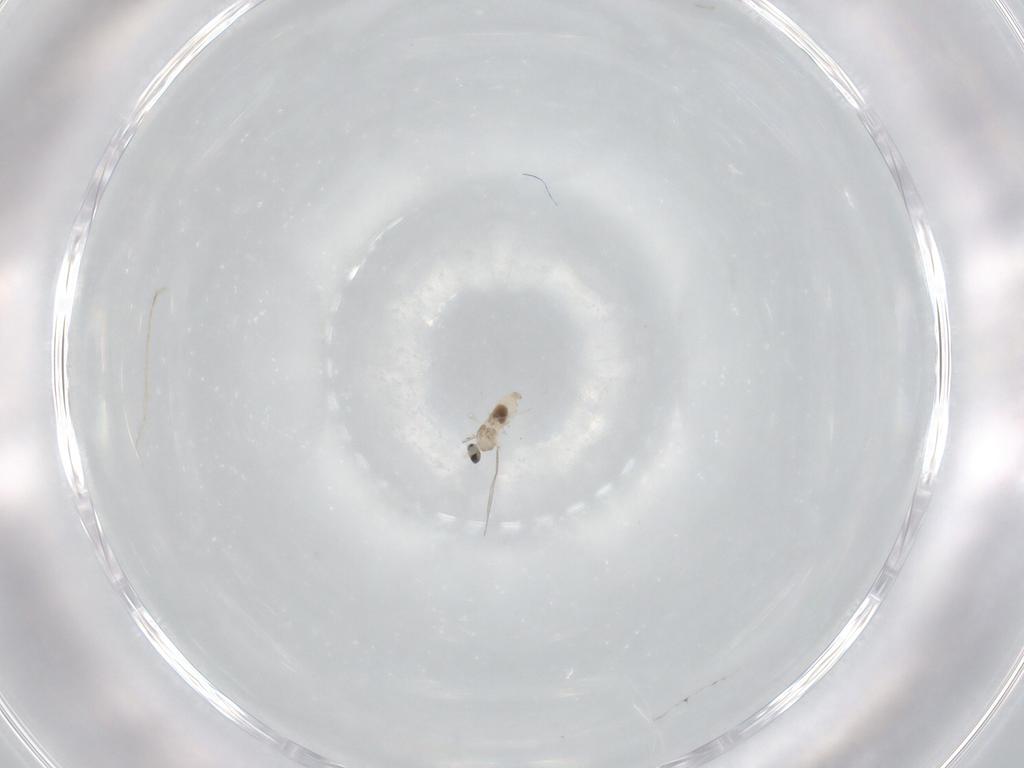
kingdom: Animalia
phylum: Arthropoda
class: Insecta
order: Diptera
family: Cecidomyiidae
